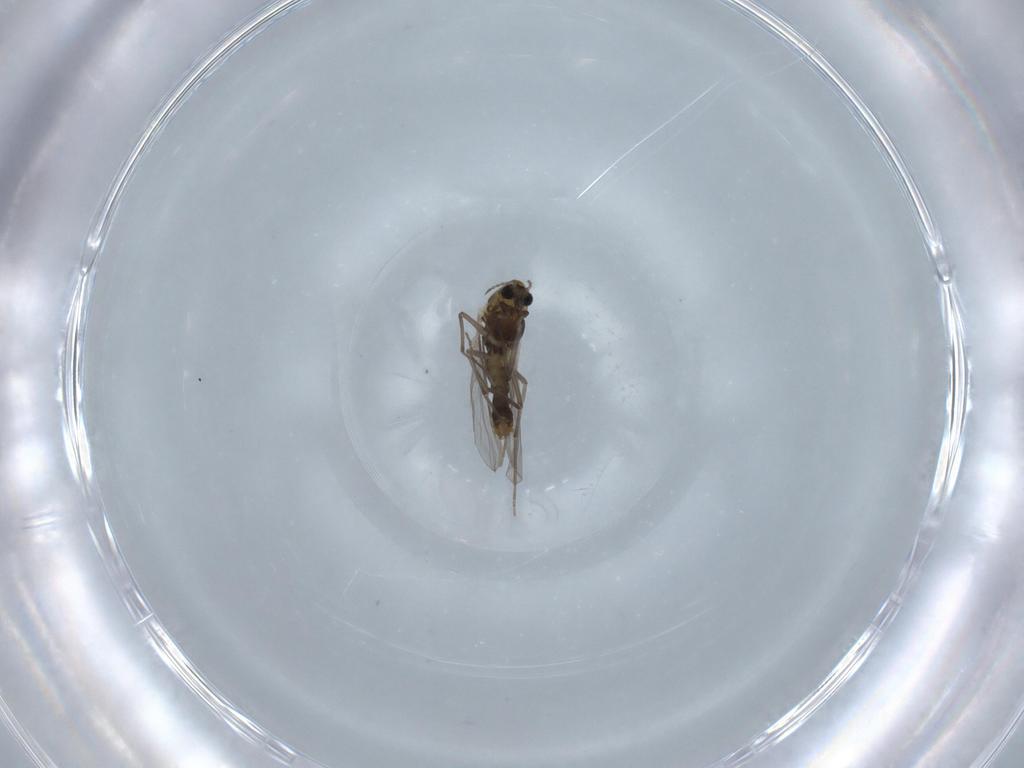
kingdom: Animalia
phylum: Arthropoda
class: Insecta
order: Diptera
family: Chironomidae
